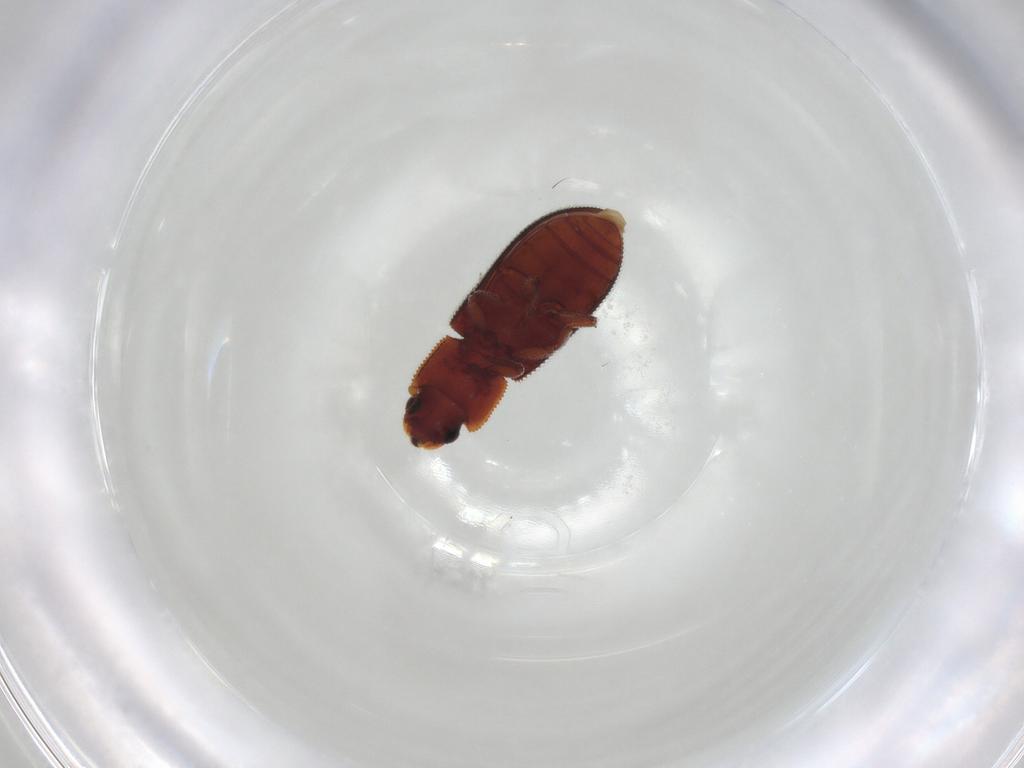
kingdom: Animalia
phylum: Arthropoda
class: Insecta
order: Coleoptera
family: Zopheridae
